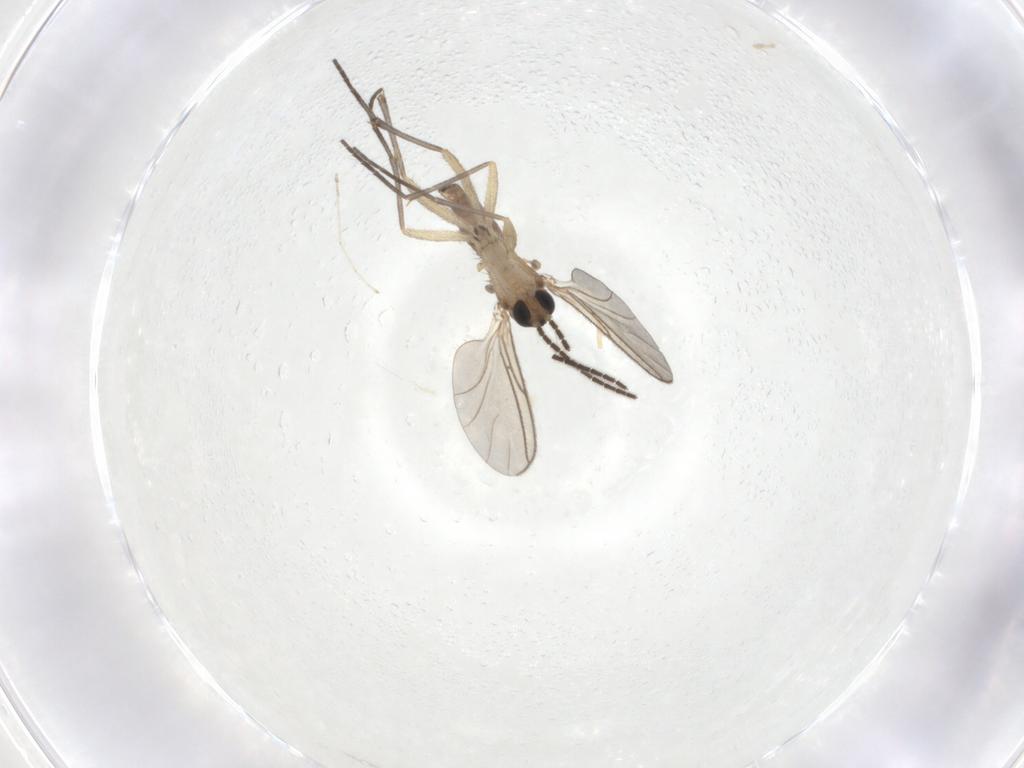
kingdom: Animalia
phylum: Arthropoda
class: Insecta
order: Diptera
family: Sciaridae
